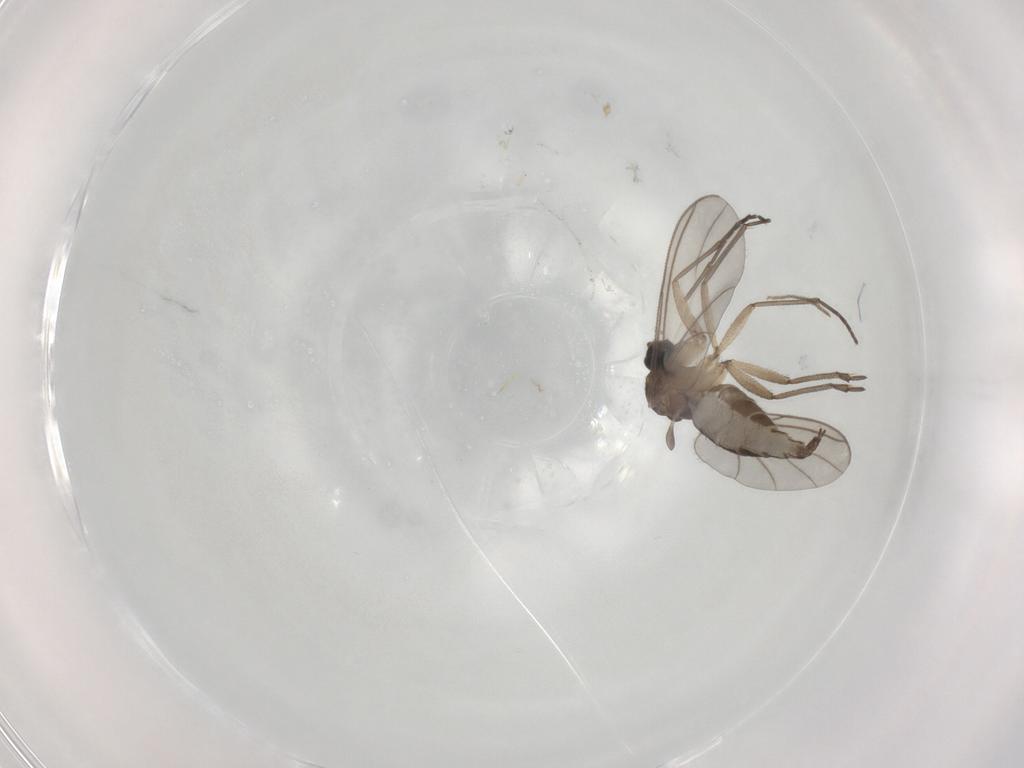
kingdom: Animalia
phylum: Arthropoda
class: Insecta
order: Diptera
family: Sciaridae
